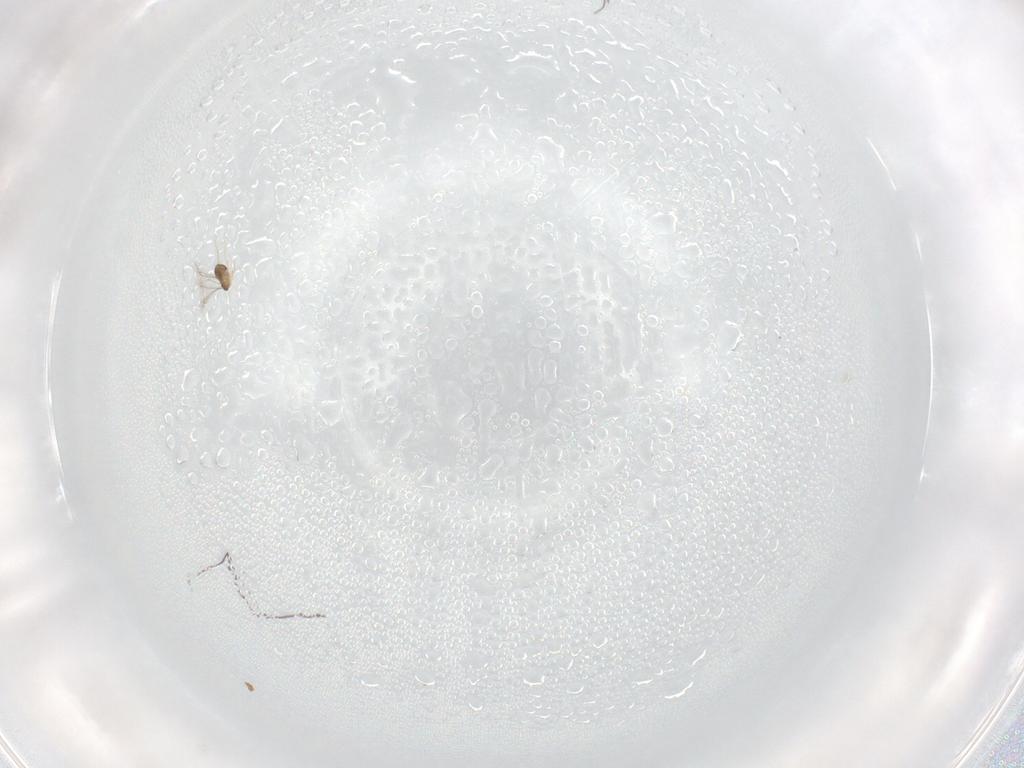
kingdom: Animalia
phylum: Arthropoda
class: Insecta
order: Hymenoptera
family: Mymaridae
